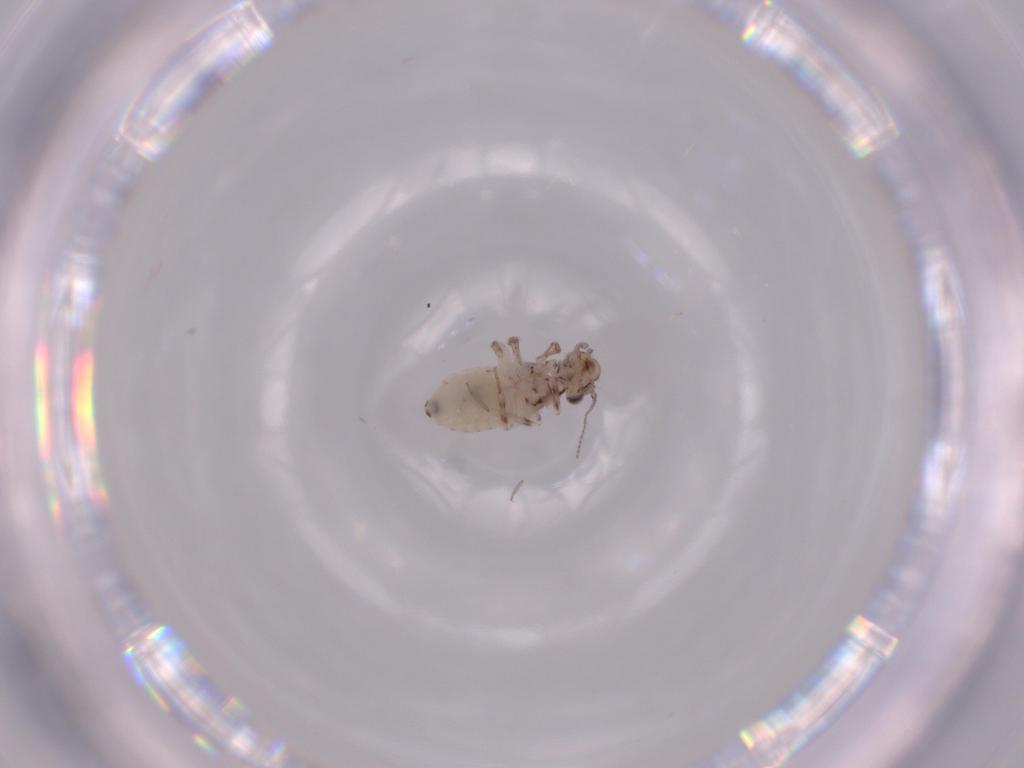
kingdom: Animalia
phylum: Arthropoda
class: Insecta
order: Psocodea
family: Lepidopsocidae
